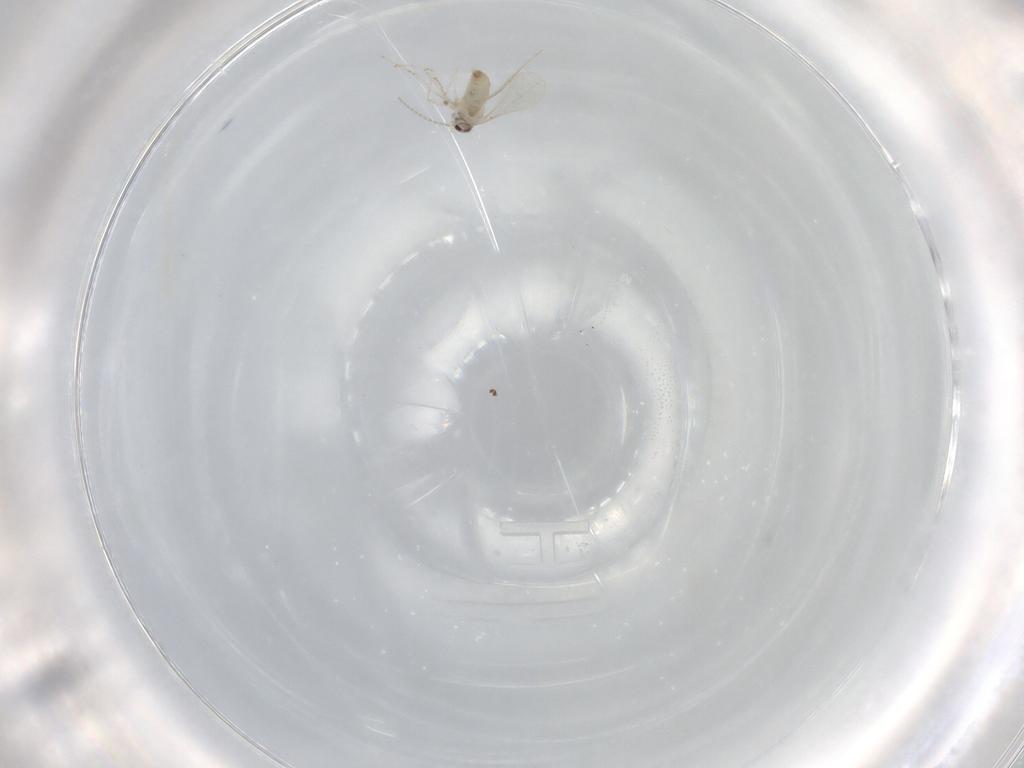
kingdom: Animalia
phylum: Arthropoda
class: Insecta
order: Diptera
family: Cecidomyiidae
